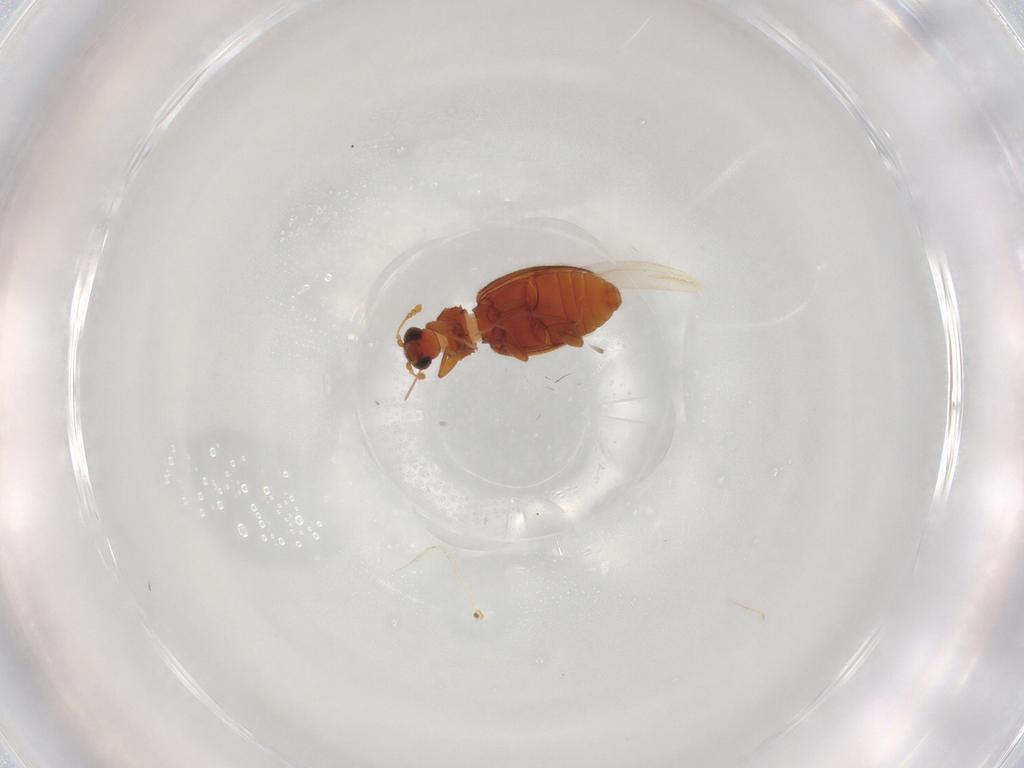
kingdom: Animalia
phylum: Arthropoda
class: Insecta
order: Coleoptera
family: Latridiidae
